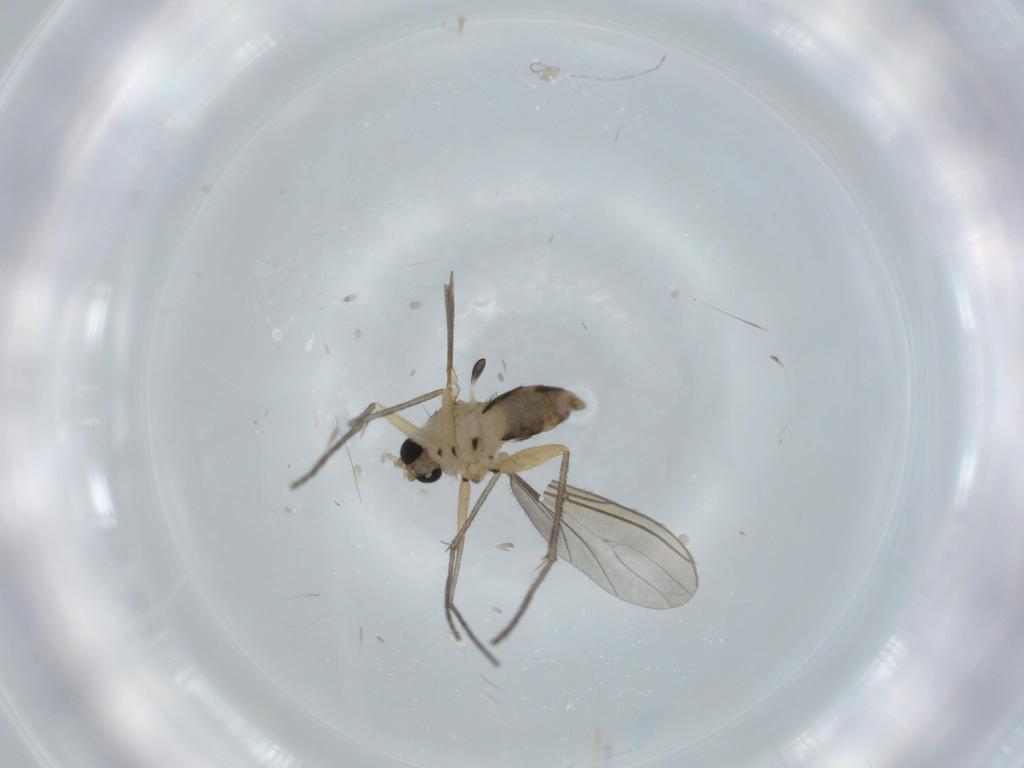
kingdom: Animalia
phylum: Arthropoda
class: Insecta
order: Diptera
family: Sciaridae
